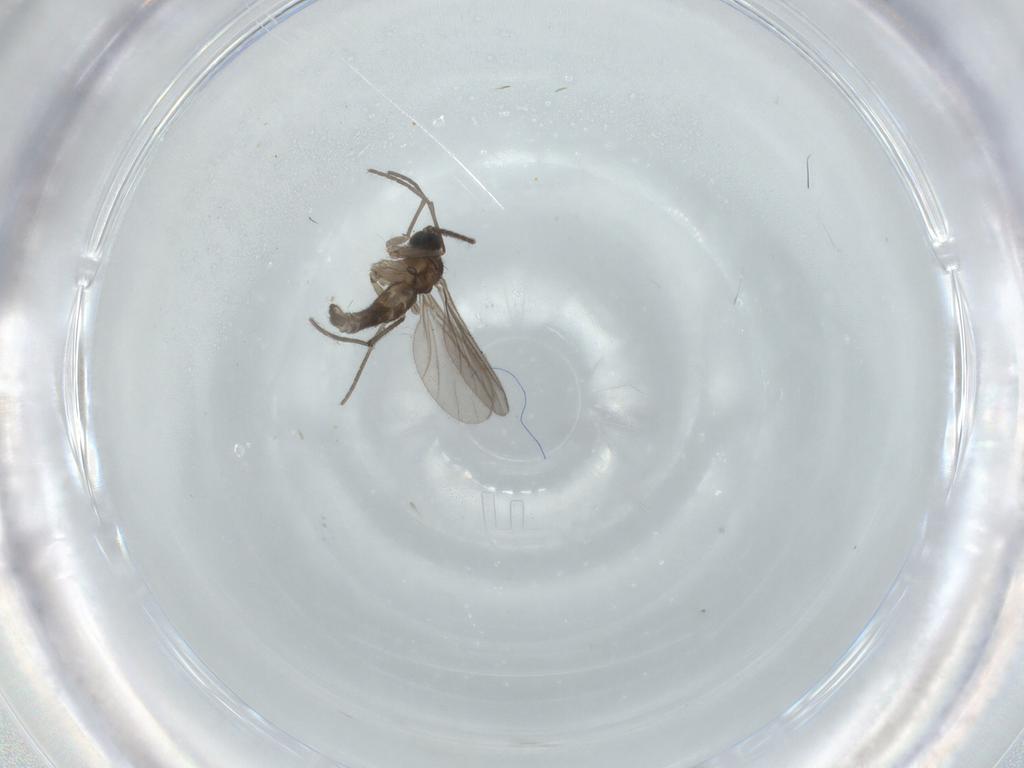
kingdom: Animalia
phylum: Arthropoda
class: Insecta
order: Diptera
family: Sciaridae
